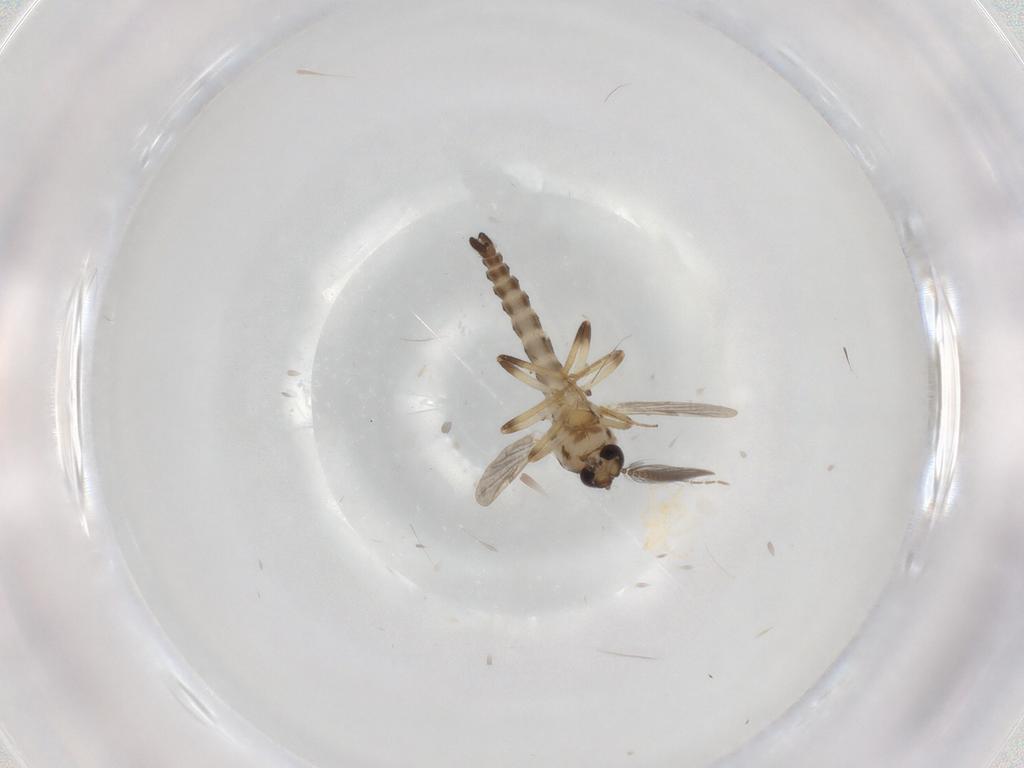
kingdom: Animalia
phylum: Arthropoda
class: Insecta
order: Diptera
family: Ceratopogonidae
